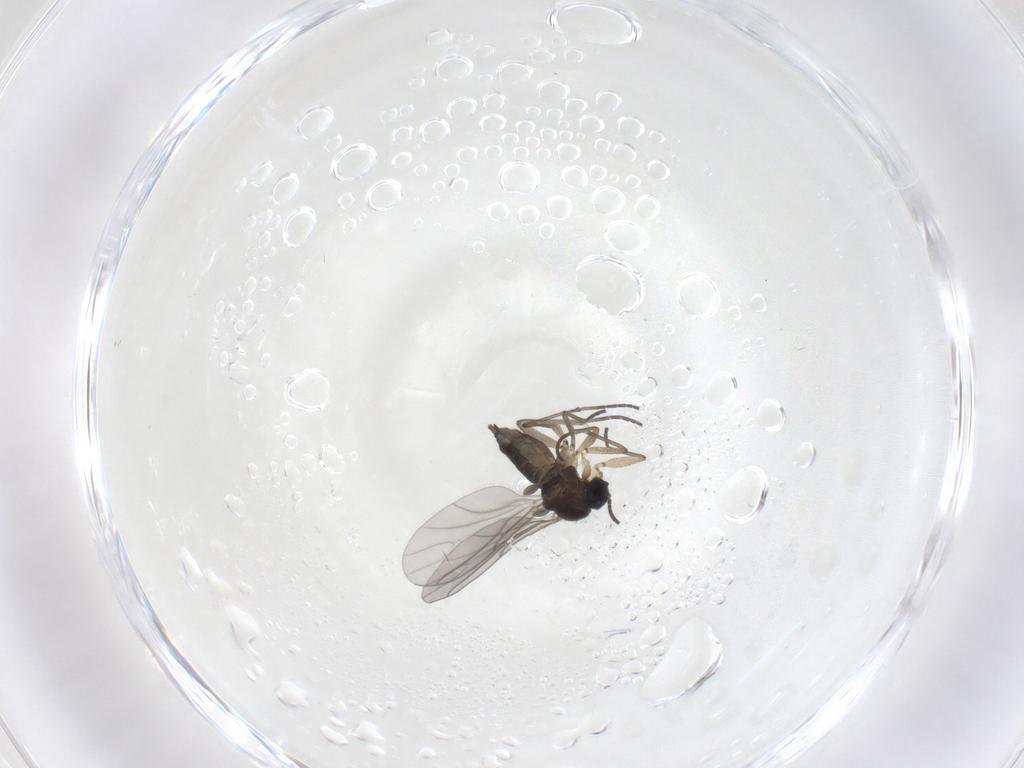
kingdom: Animalia
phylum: Arthropoda
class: Insecta
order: Diptera
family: Sciaridae
